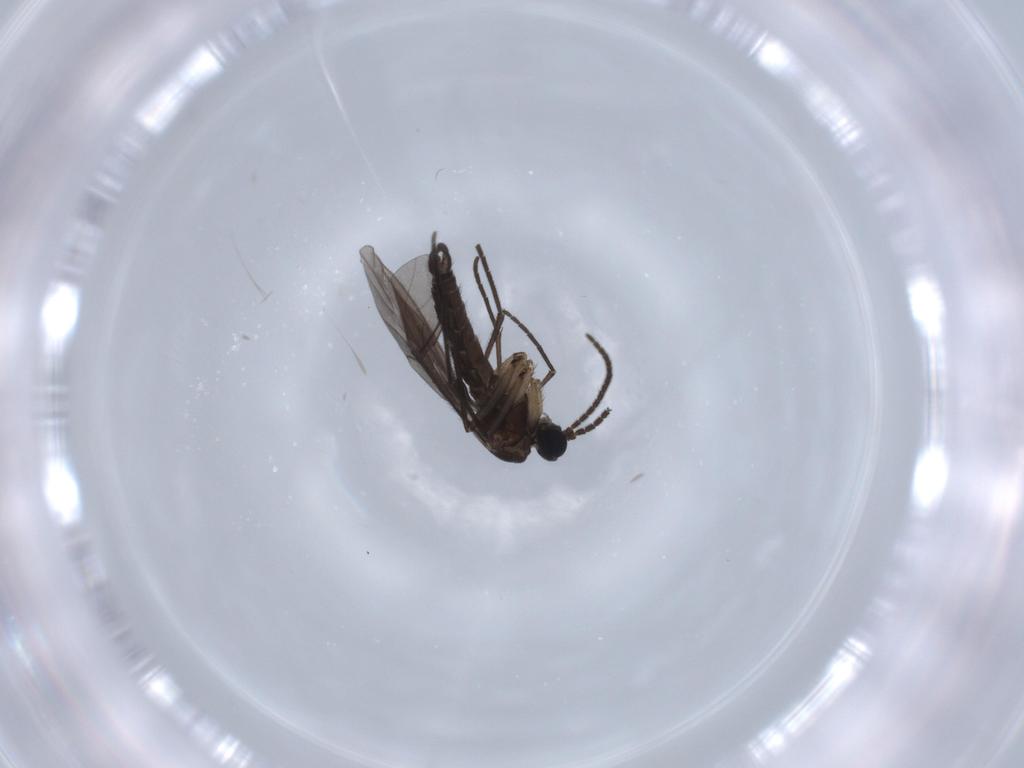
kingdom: Animalia
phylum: Arthropoda
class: Insecta
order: Diptera
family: Sciaridae
